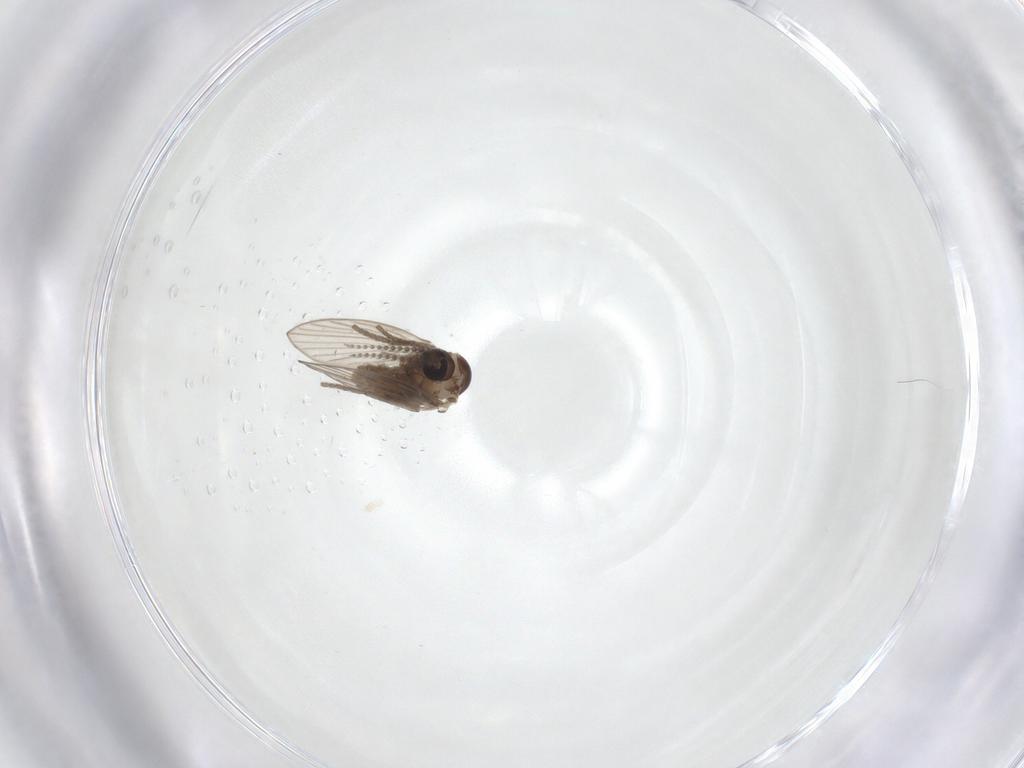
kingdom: Animalia
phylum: Arthropoda
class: Insecta
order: Diptera
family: Psychodidae
